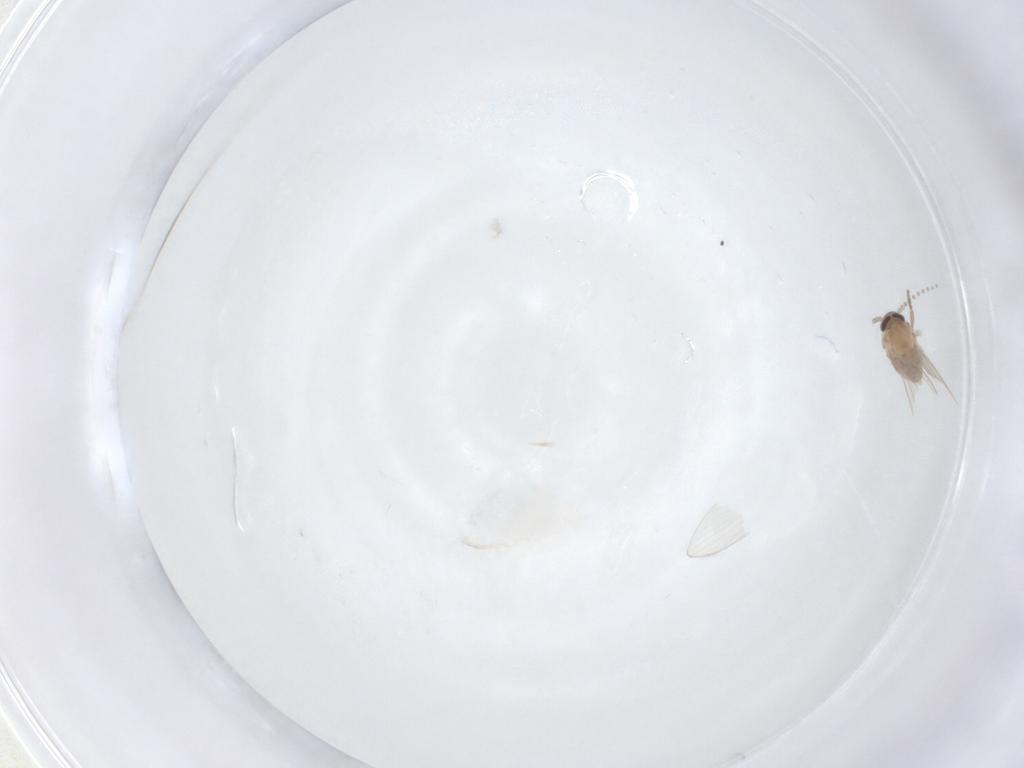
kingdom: Animalia
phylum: Arthropoda
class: Insecta
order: Diptera
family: Psychodidae
